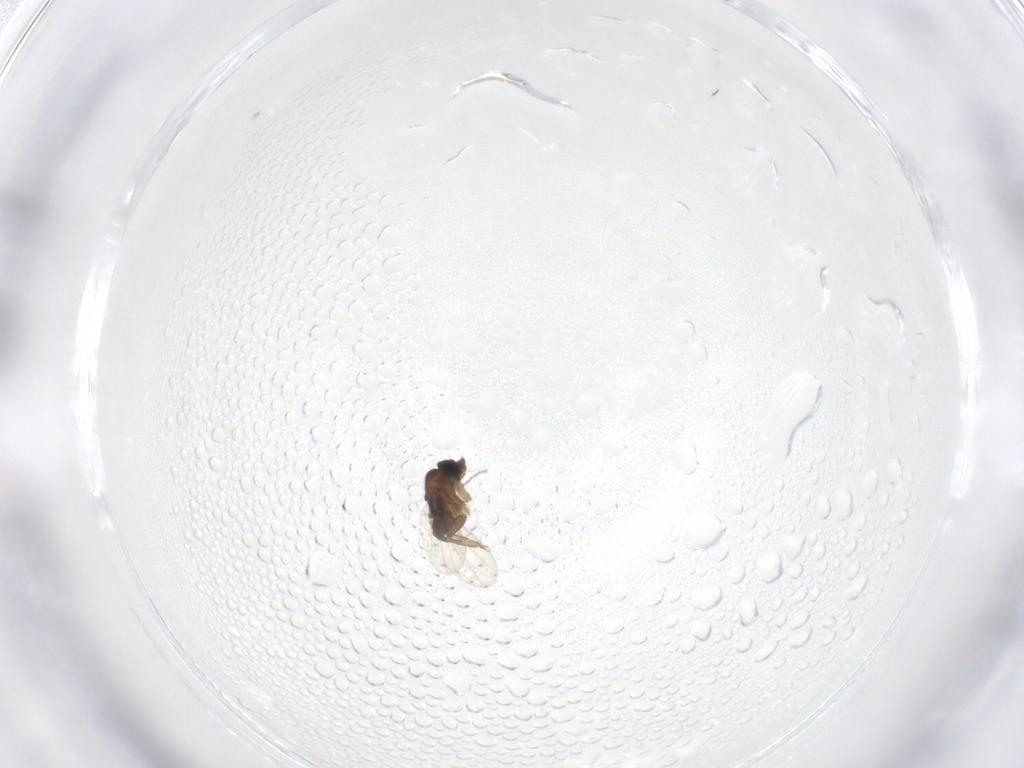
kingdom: Animalia
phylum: Arthropoda
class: Insecta
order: Diptera
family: Phoridae
